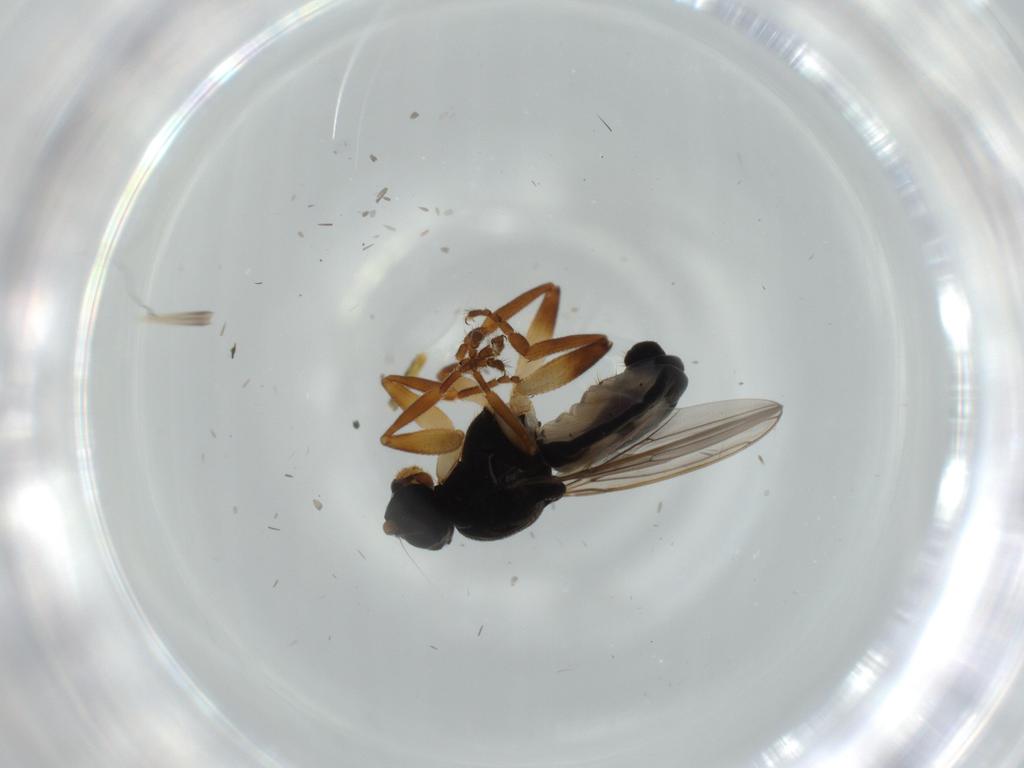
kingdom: Animalia
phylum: Arthropoda
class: Insecta
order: Diptera
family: Sphaeroceridae
